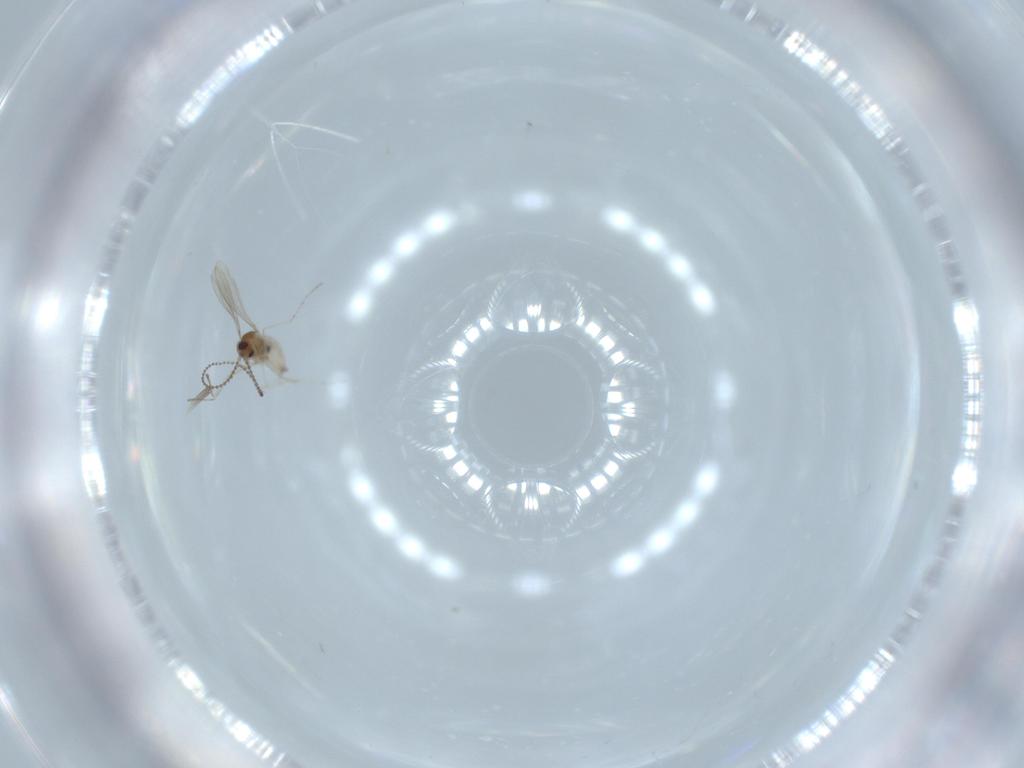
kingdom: Animalia
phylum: Arthropoda
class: Insecta
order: Diptera
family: Cecidomyiidae
